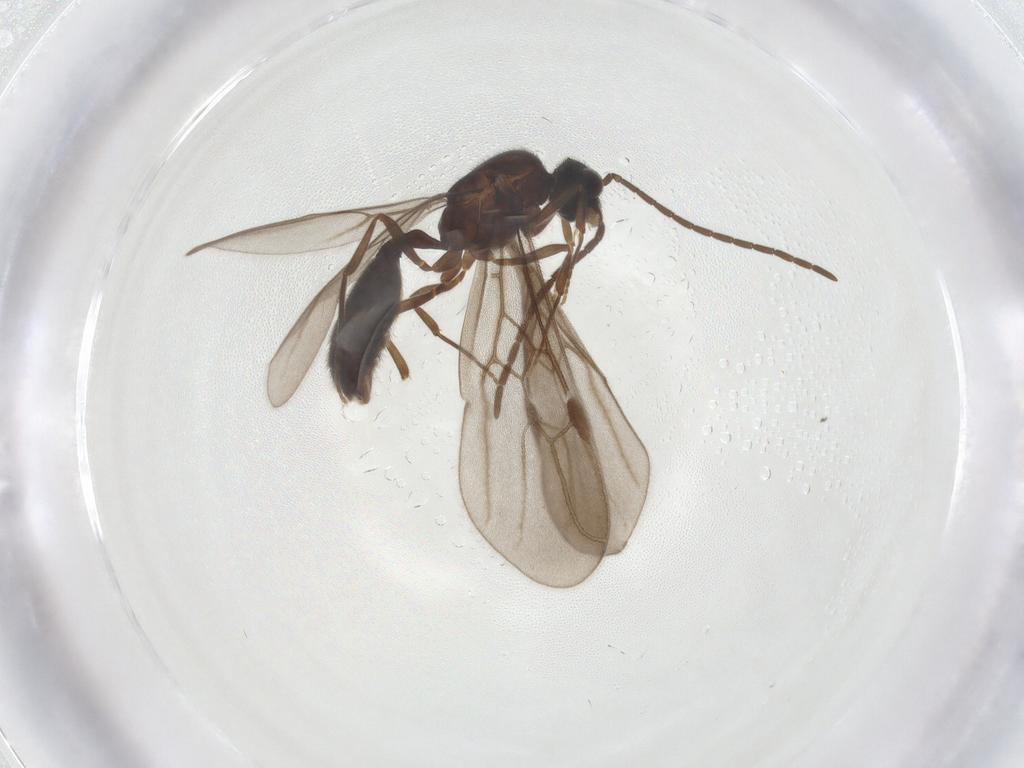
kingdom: Animalia
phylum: Arthropoda
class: Insecta
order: Hymenoptera
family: Formicidae
